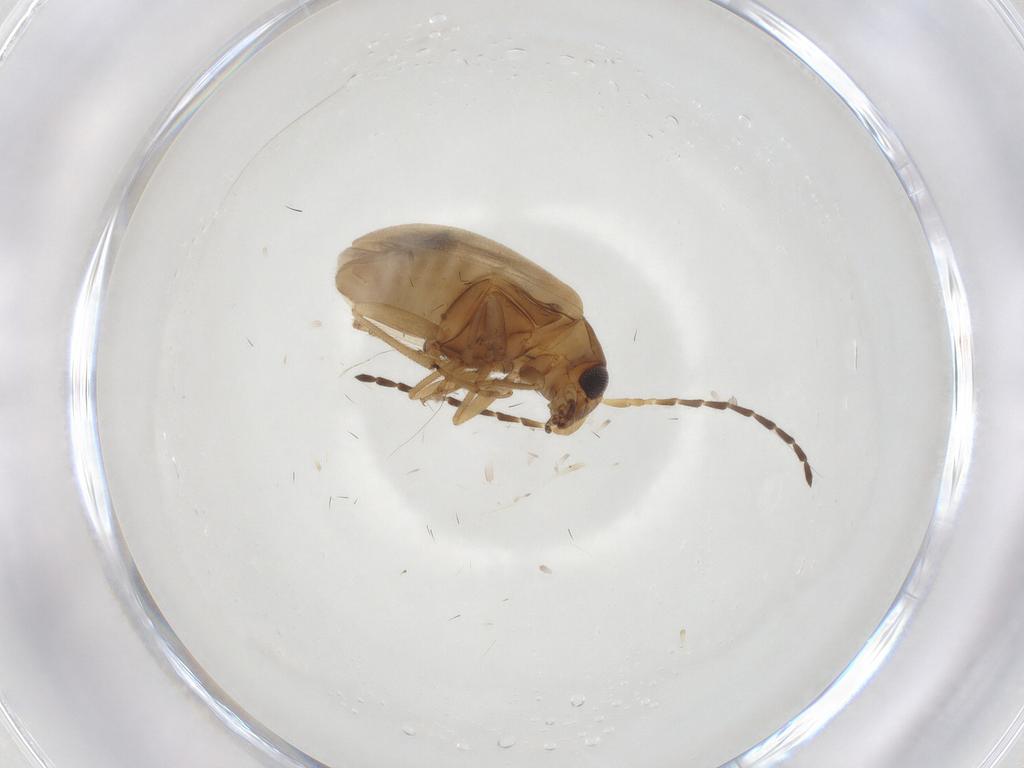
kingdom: Animalia
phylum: Arthropoda
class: Insecta
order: Coleoptera
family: Chrysomelidae
